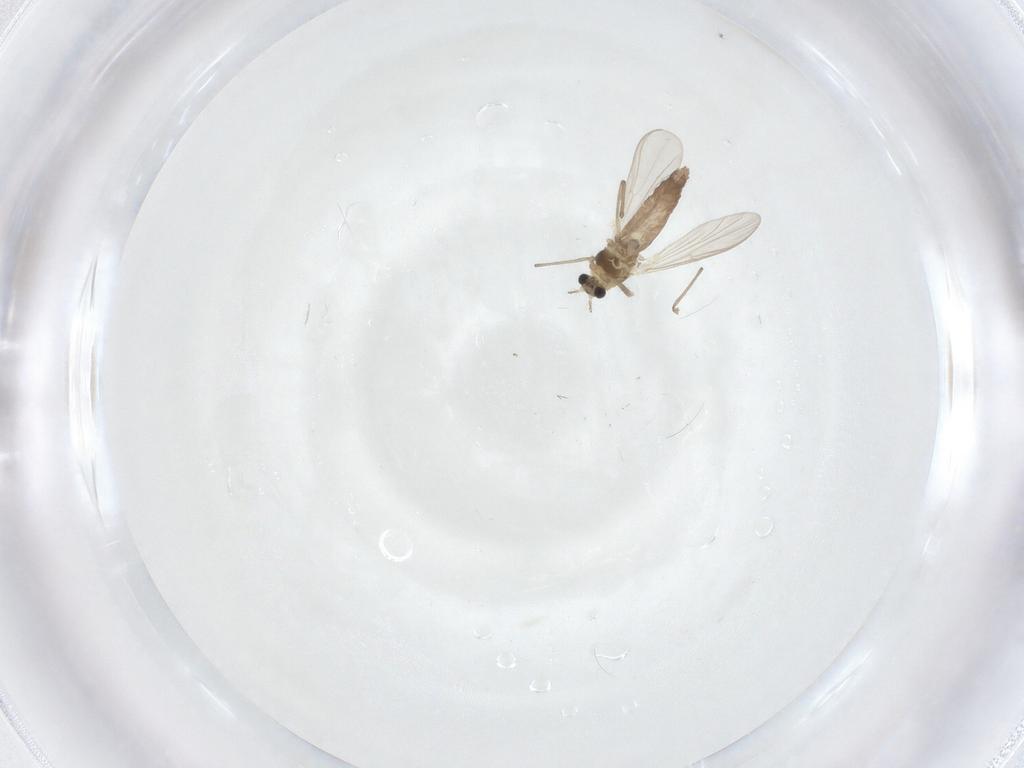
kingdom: Animalia
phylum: Arthropoda
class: Insecta
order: Diptera
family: Chironomidae
